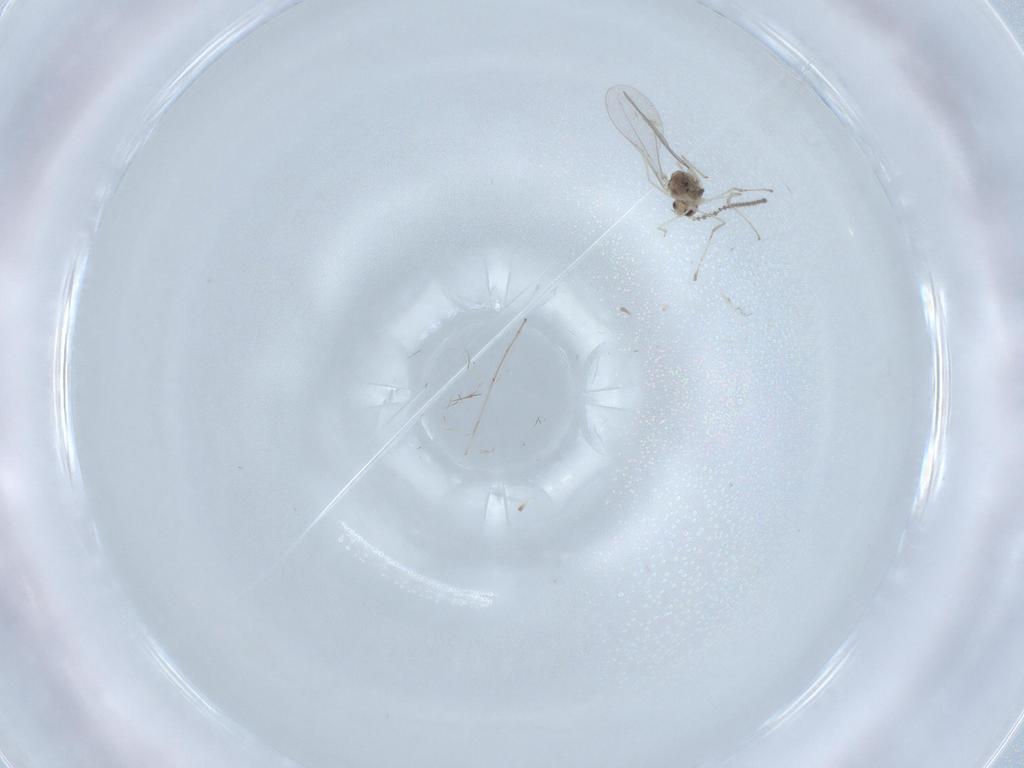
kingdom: Animalia
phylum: Arthropoda
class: Insecta
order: Diptera
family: Cecidomyiidae
